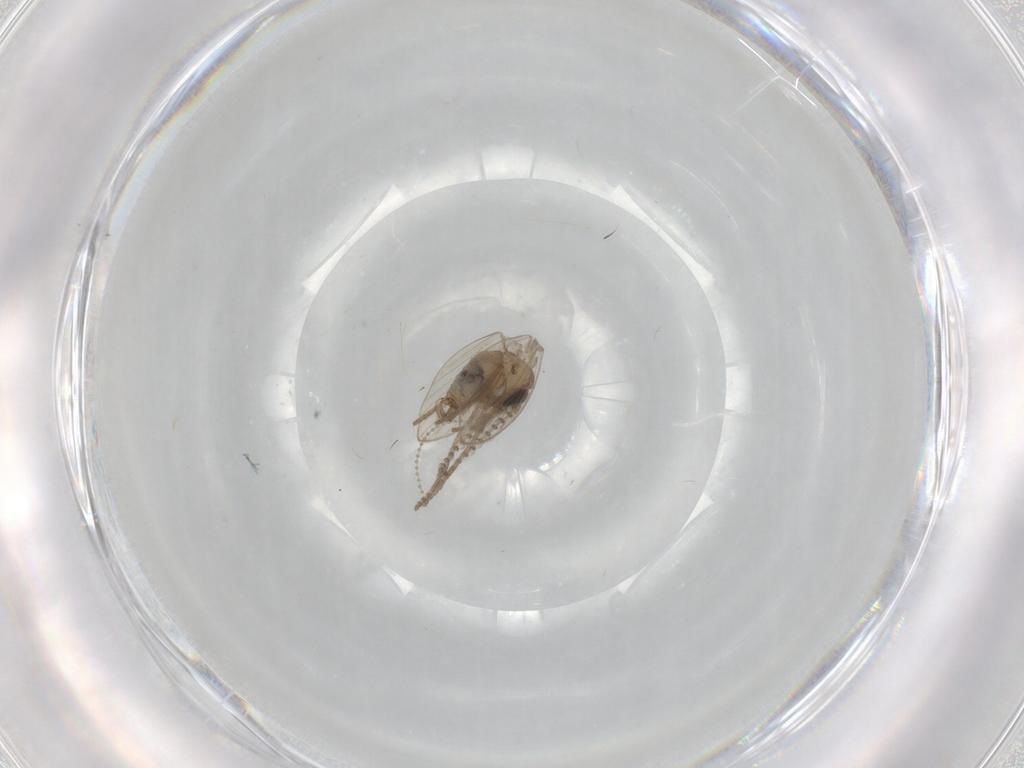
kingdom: Animalia
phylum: Arthropoda
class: Insecta
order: Diptera
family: Psychodidae
